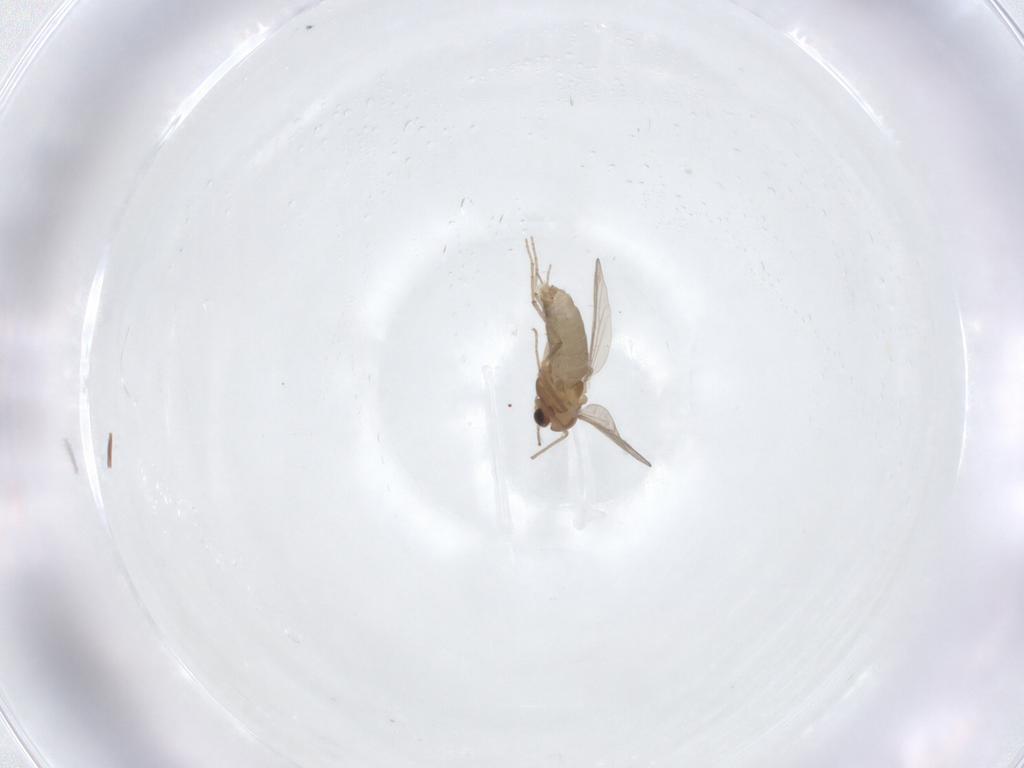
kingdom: Animalia
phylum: Arthropoda
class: Insecta
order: Diptera
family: Chironomidae
